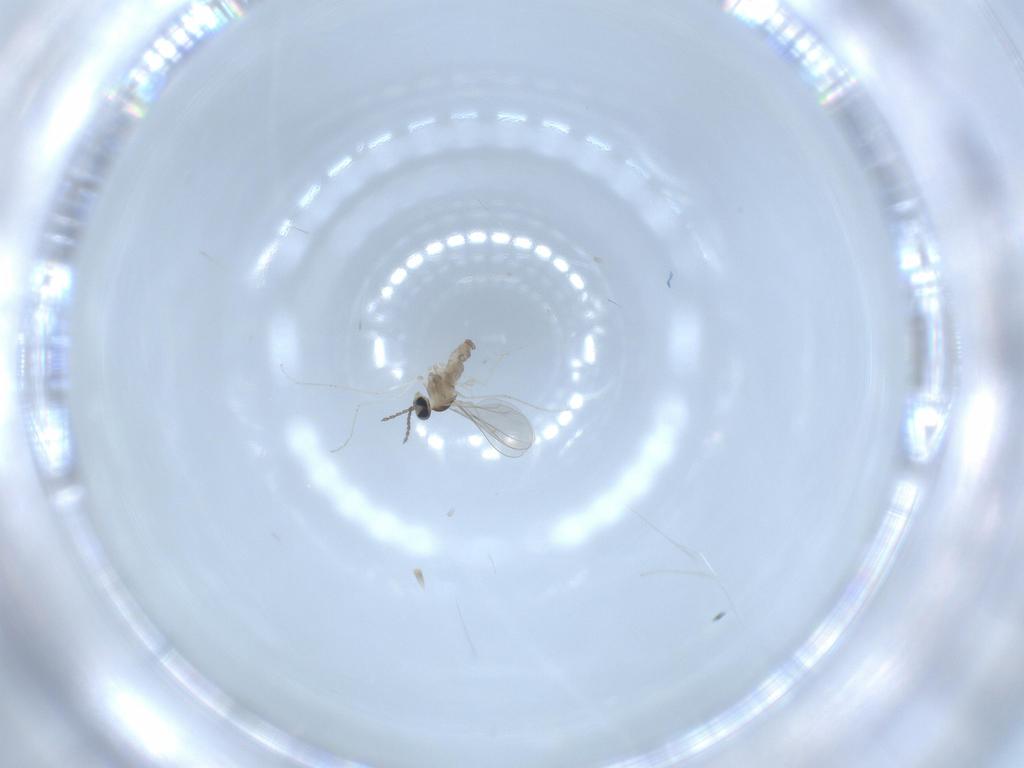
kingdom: Animalia
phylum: Arthropoda
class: Insecta
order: Diptera
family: Cecidomyiidae
